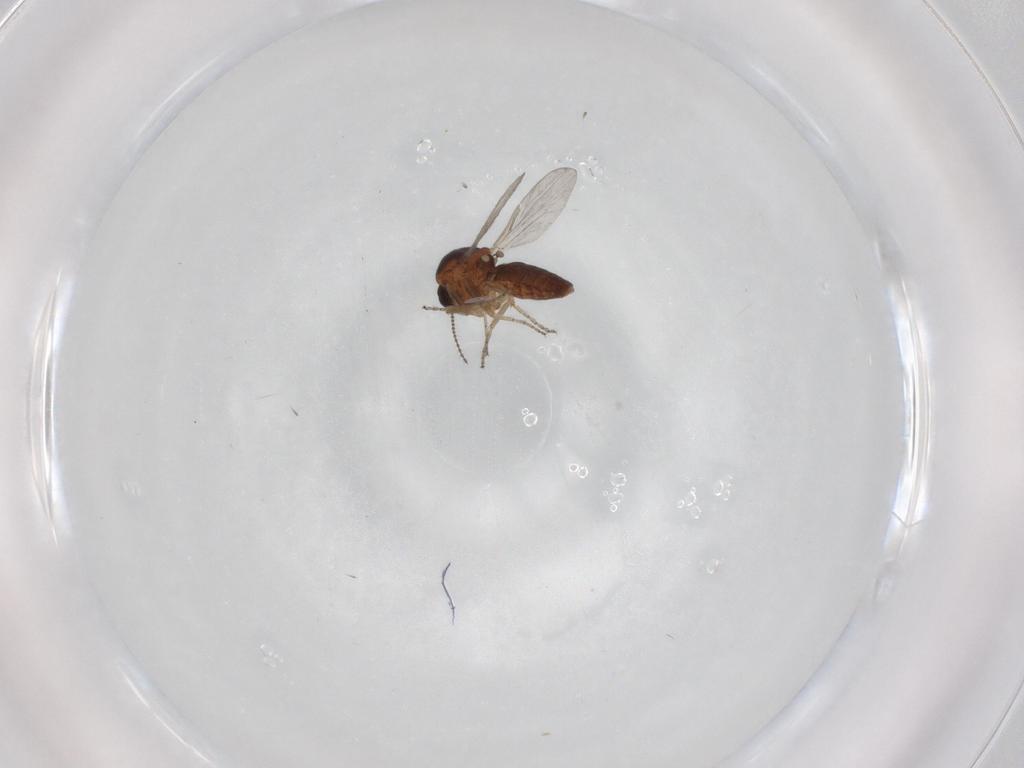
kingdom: Animalia
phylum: Arthropoda
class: Insecta
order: Diptera
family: Ceratopogonidae
